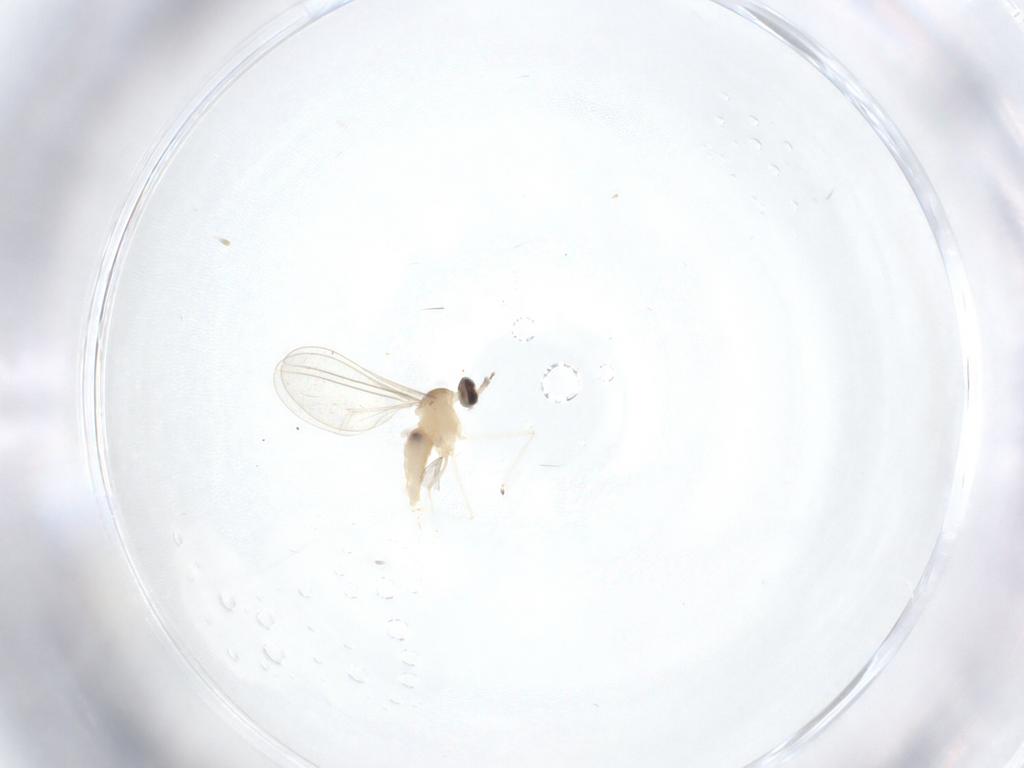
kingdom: Animalia
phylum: Arthropoda
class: Insecta
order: Diptera
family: Phoridae
